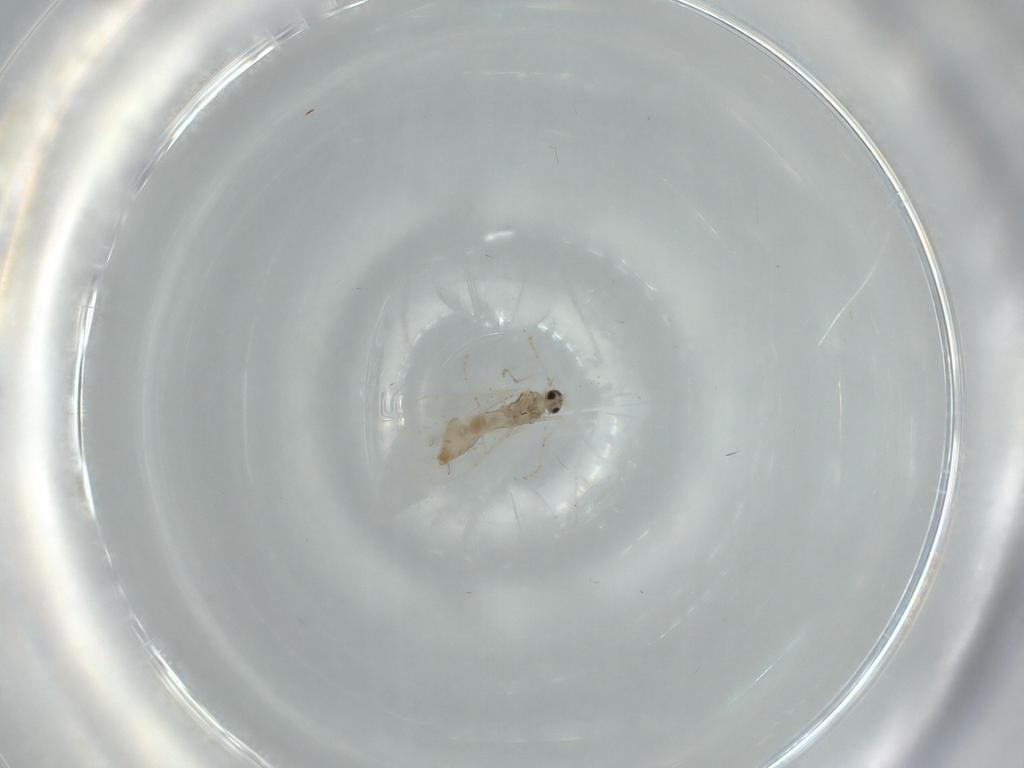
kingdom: Animalia
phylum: Arthropoda
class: Insecta
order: Diptera
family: Cecidomyiidae
